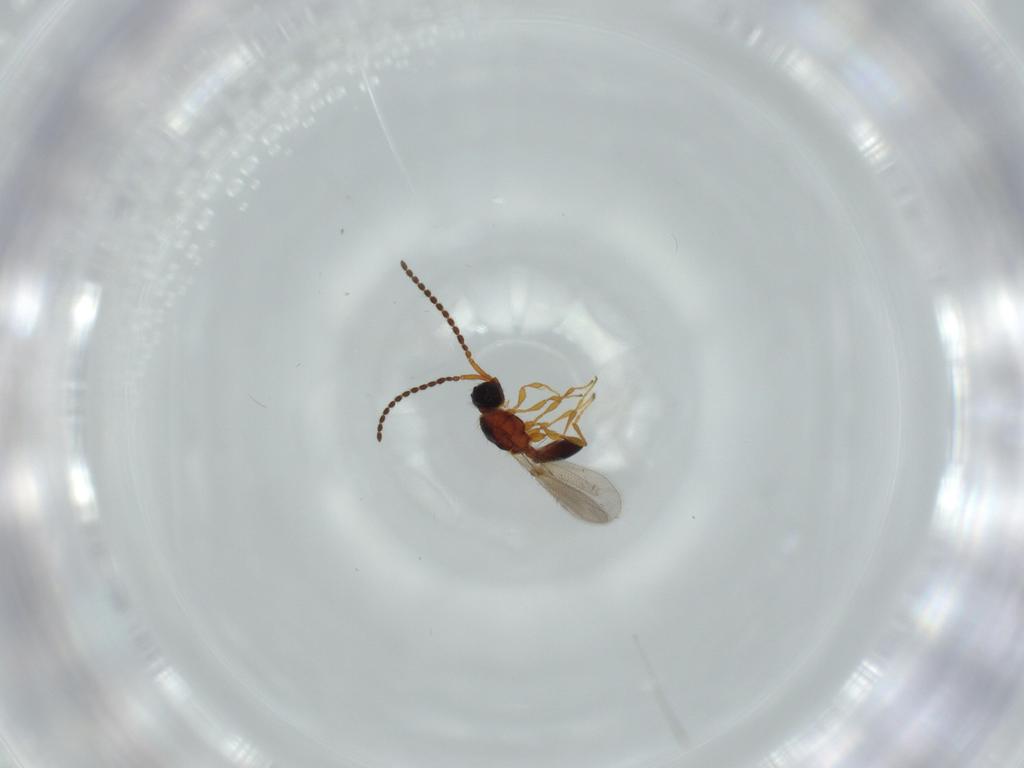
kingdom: Animalia
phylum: Arthropoda
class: Insecta
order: Hymenoptera
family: Diapriidae
